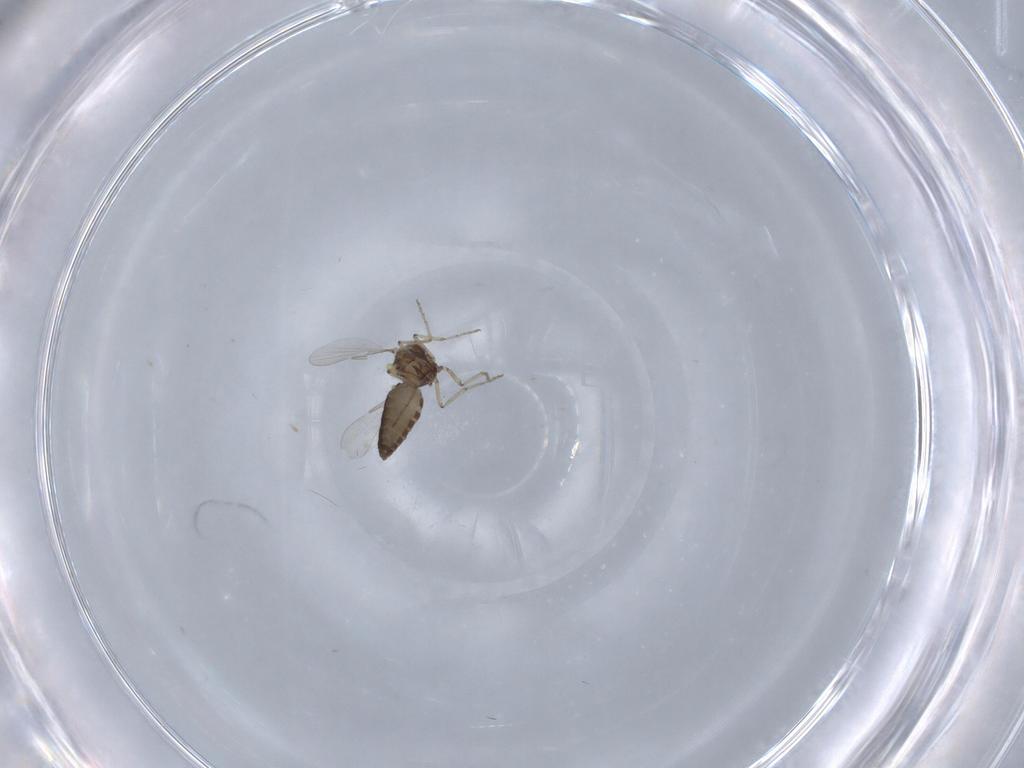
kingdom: Animalia
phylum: Arthropoda
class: Insecta
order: Diptera
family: Ceratopogonidae
